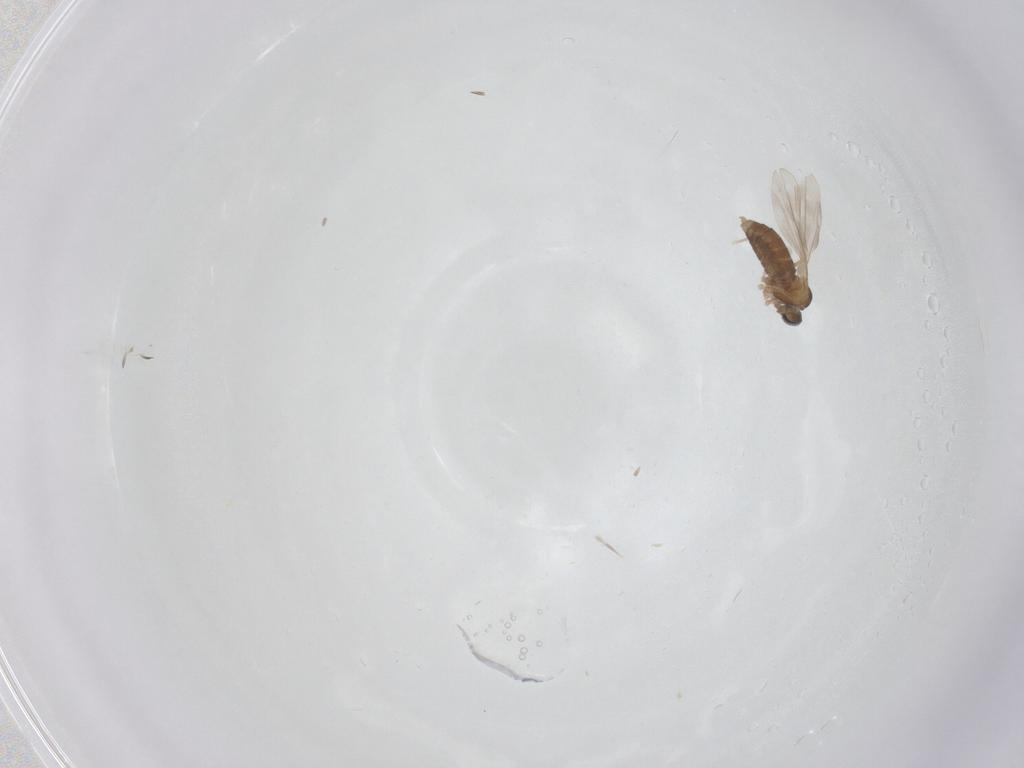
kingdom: Animalia
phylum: Arthropoda
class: Insecta
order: Diptera
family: Cecidomyiidae
